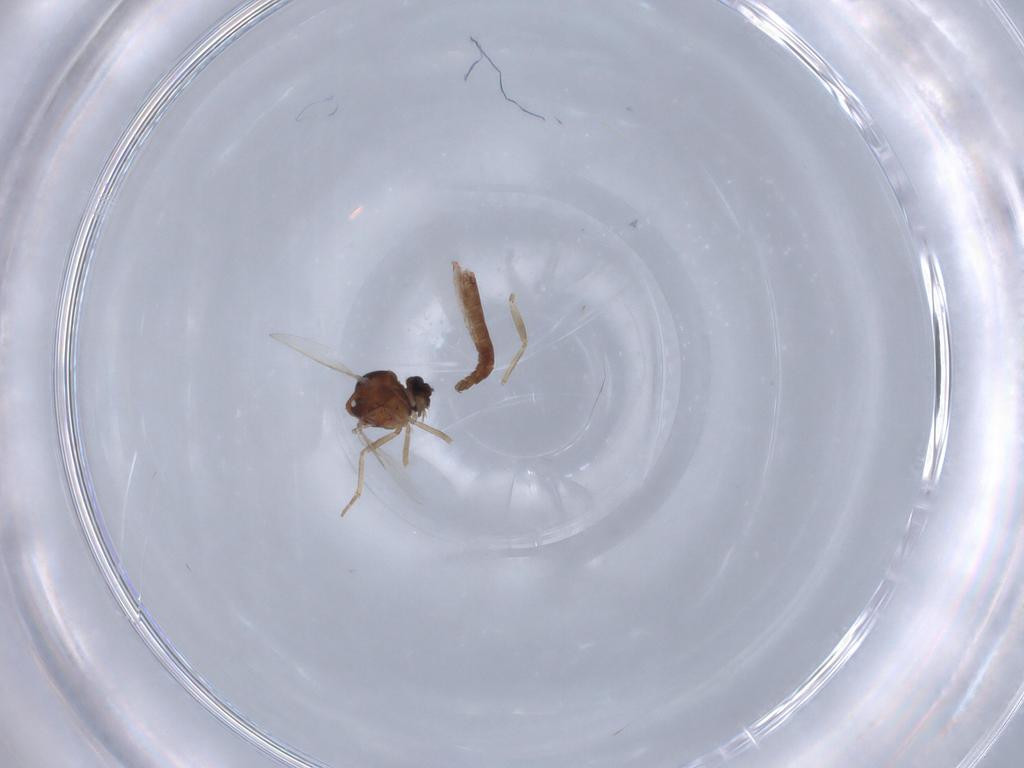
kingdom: Animalia
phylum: Arthropoda
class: Insecta
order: Diptera
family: Ceratopogonidae
